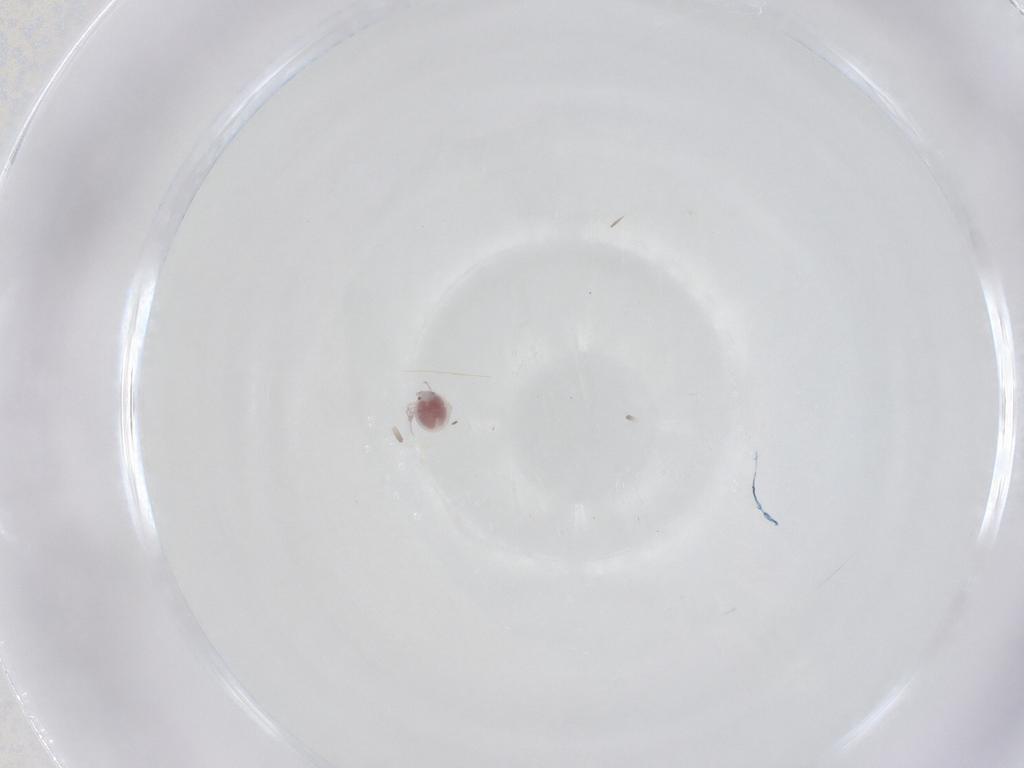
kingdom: Animalia
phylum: Arthropoda
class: Arachnida
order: Trombidiformes
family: Pionidae
